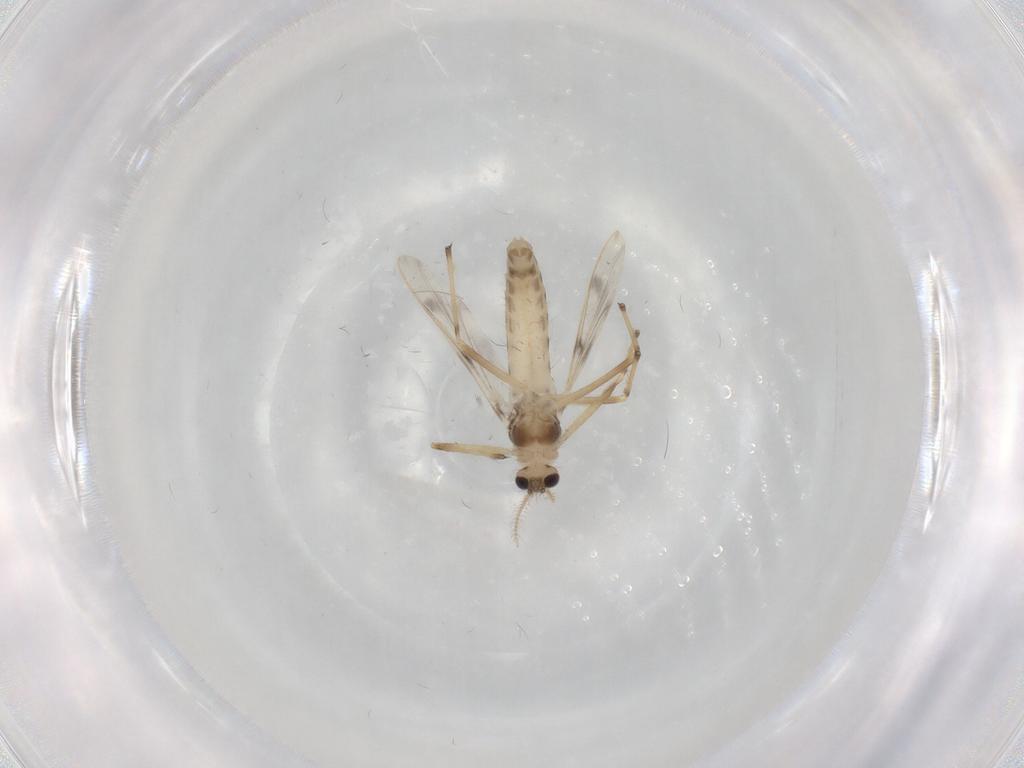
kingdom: Animalia
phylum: Arthropoda
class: Insecta
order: Diptera
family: Chironomidae
